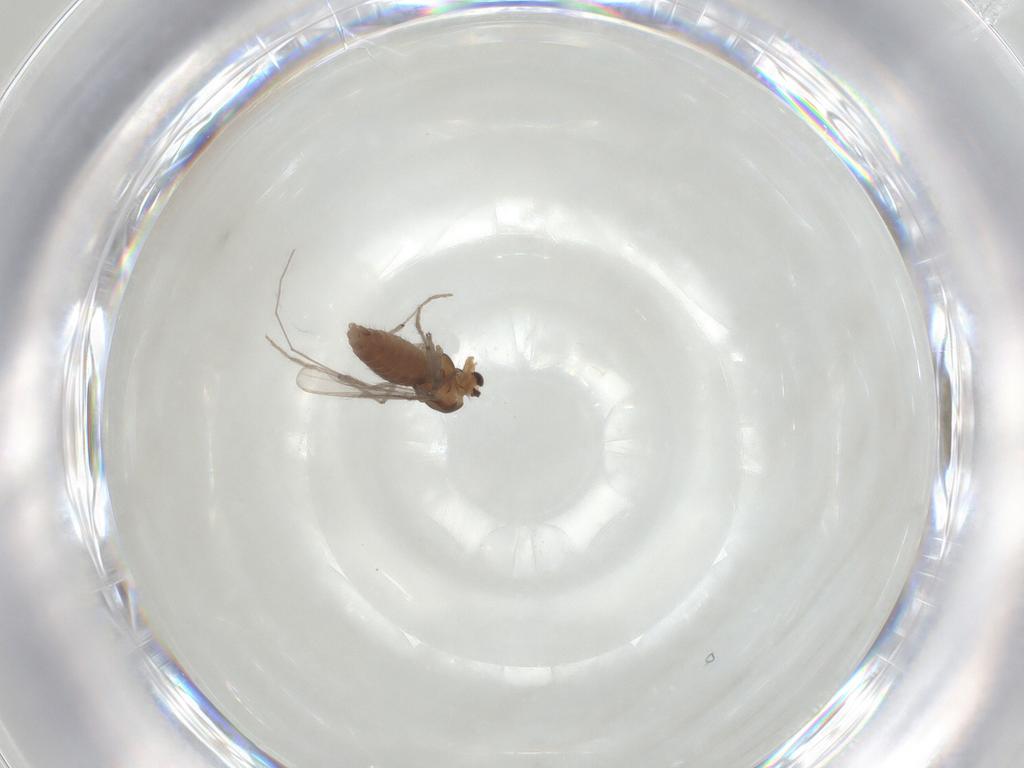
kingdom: Animalia
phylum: Arthropoda
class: Insecta
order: Diptera
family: Chironomidae
